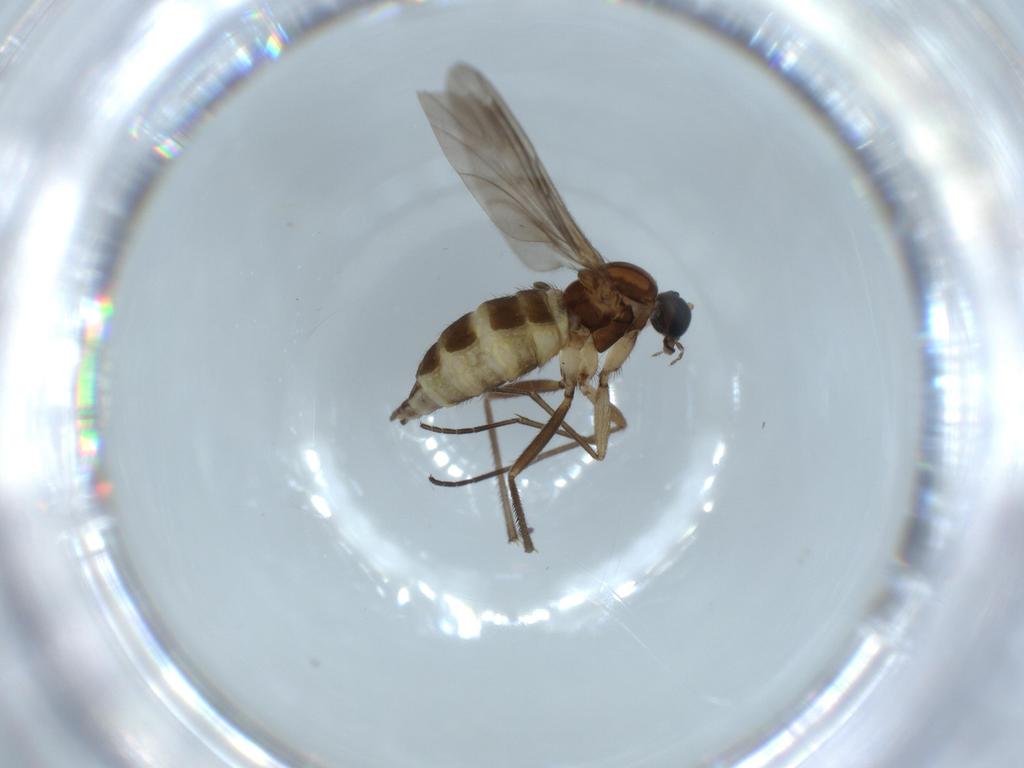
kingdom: Animalia
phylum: Arthropoda
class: Insecta
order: Diptera
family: Sciaridae
